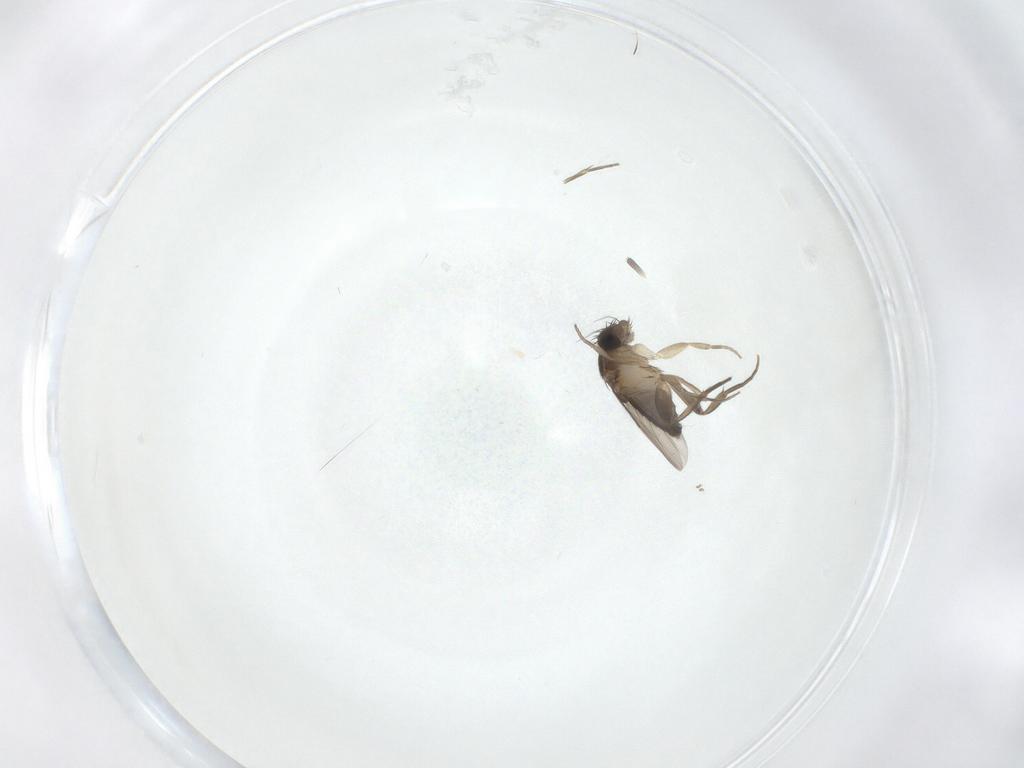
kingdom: Animalia
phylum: Arthropoda
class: Insecta
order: Diptera
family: Phoridae
